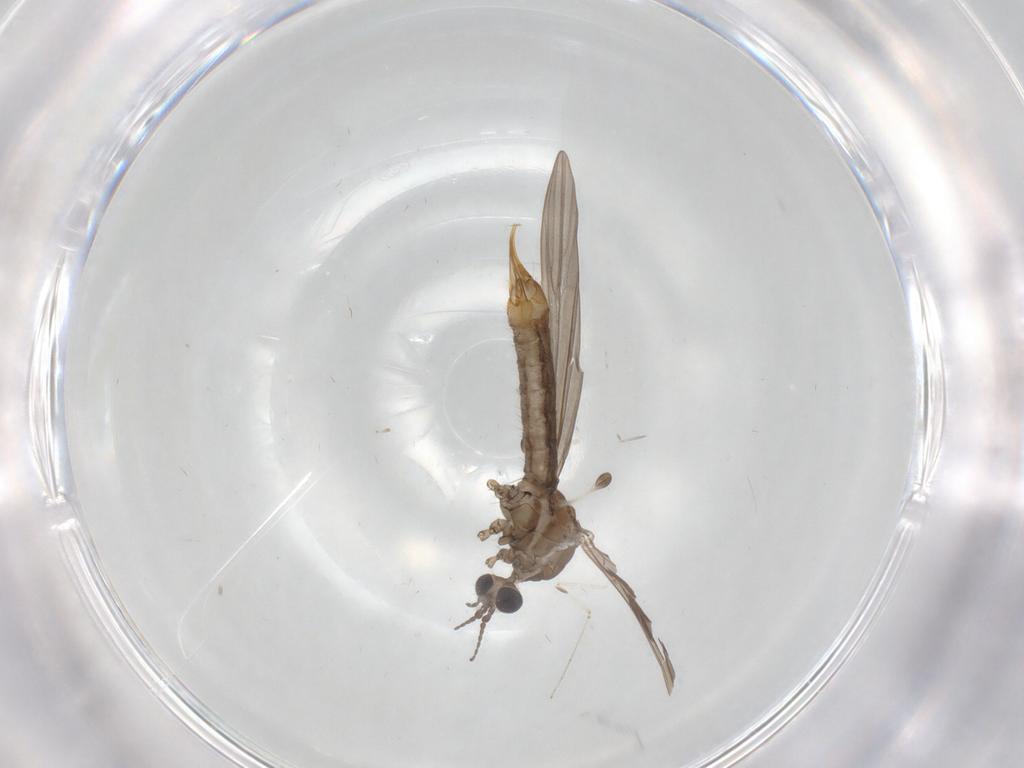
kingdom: Animalia
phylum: Arthropoda
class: Insecta
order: Diptera
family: Limoniidae
